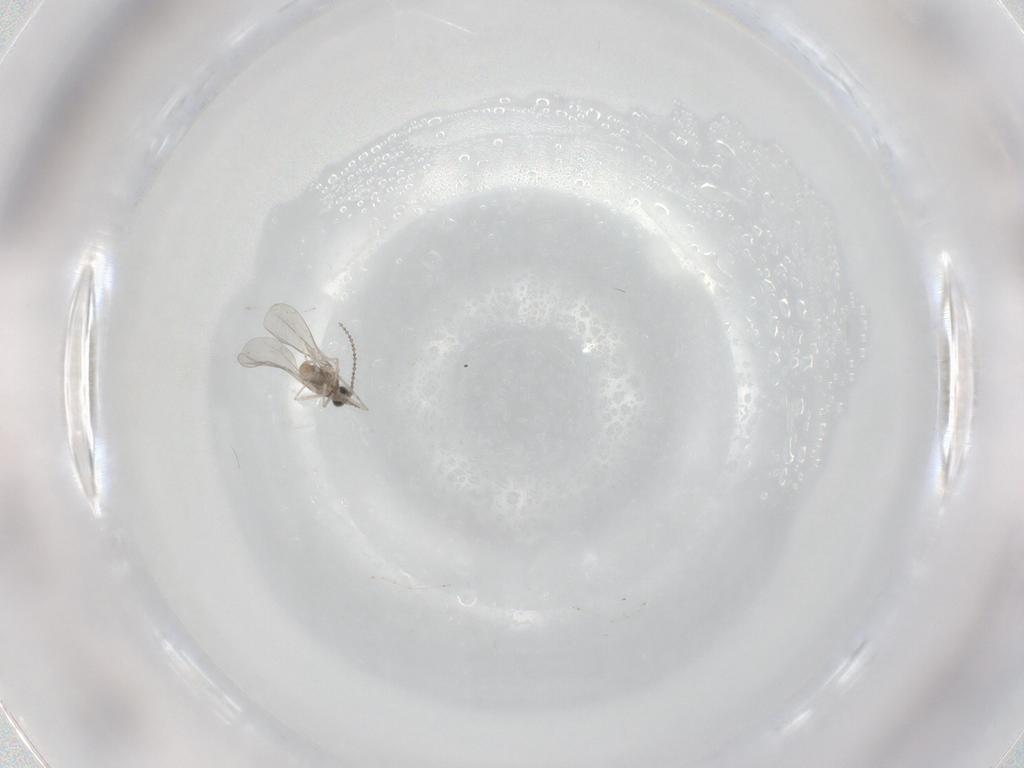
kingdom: Animalia
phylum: Arthropoda
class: Insecta
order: Diptera
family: Cecidomyiidae
